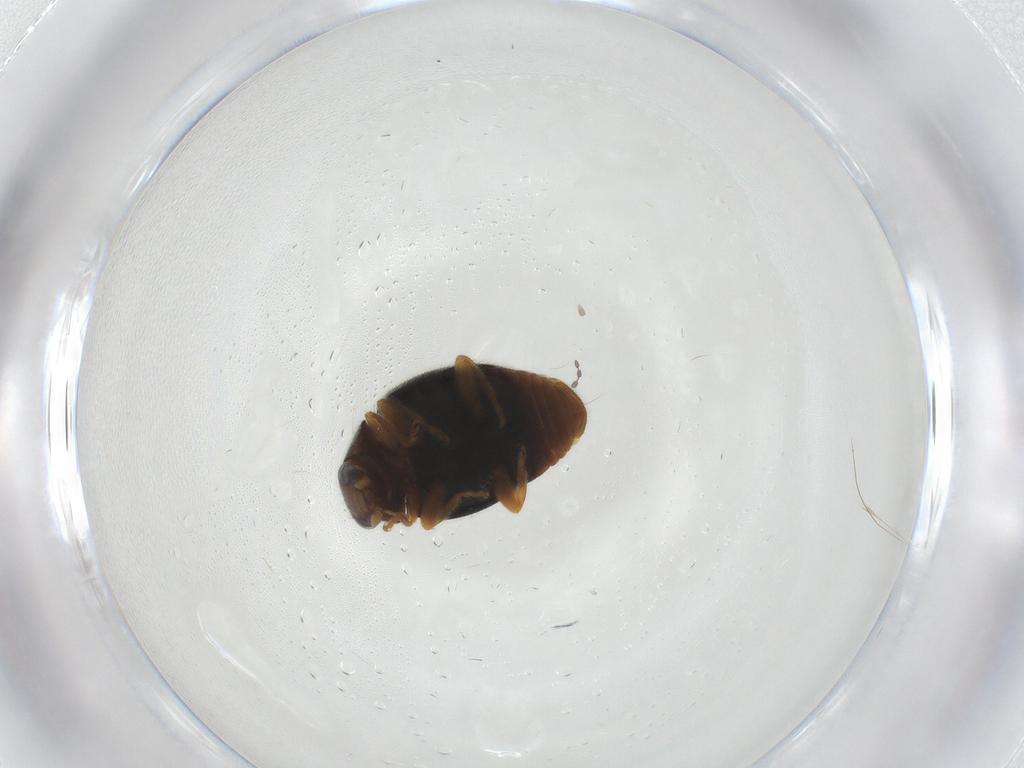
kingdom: Animalia
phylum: Arthropoda
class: Insecta
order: Coleoptera
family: Coccinellidae
